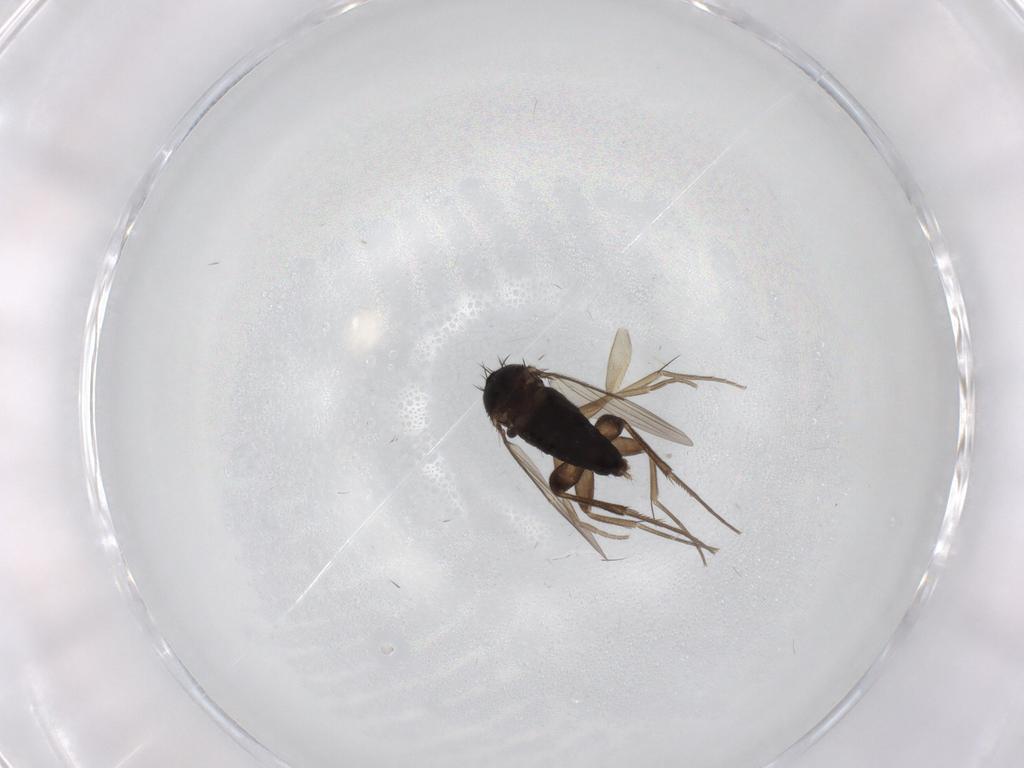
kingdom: Animalia
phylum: Arthropoda
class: Insecta
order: Diptera
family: Phoridae
